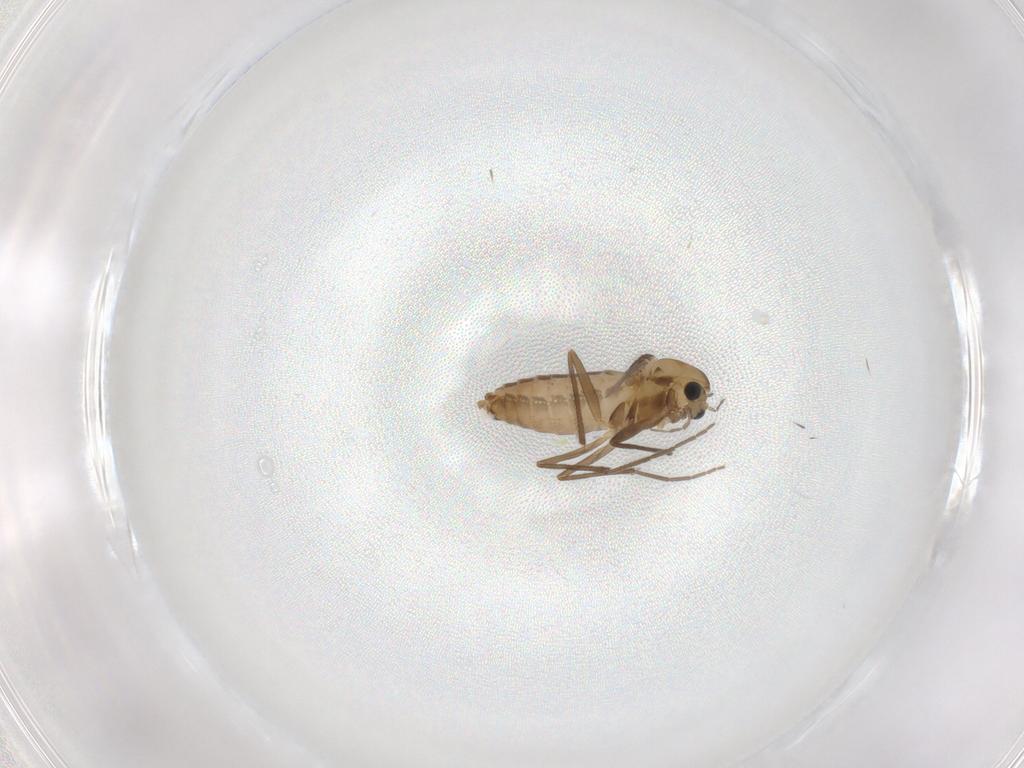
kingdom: Animalia
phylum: Arthropoda
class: Insecta
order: Diptera
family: Chironomidae
